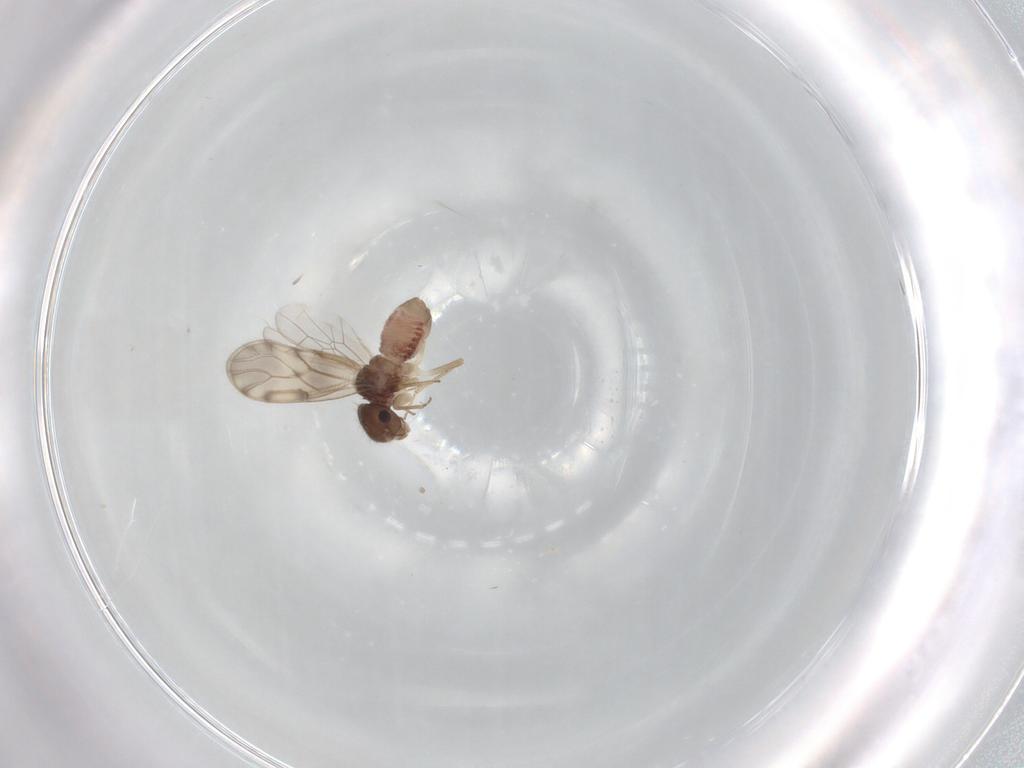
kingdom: Animalia
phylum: Arthropoda
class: Insecta
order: Psocodea
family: Peripsocidae
